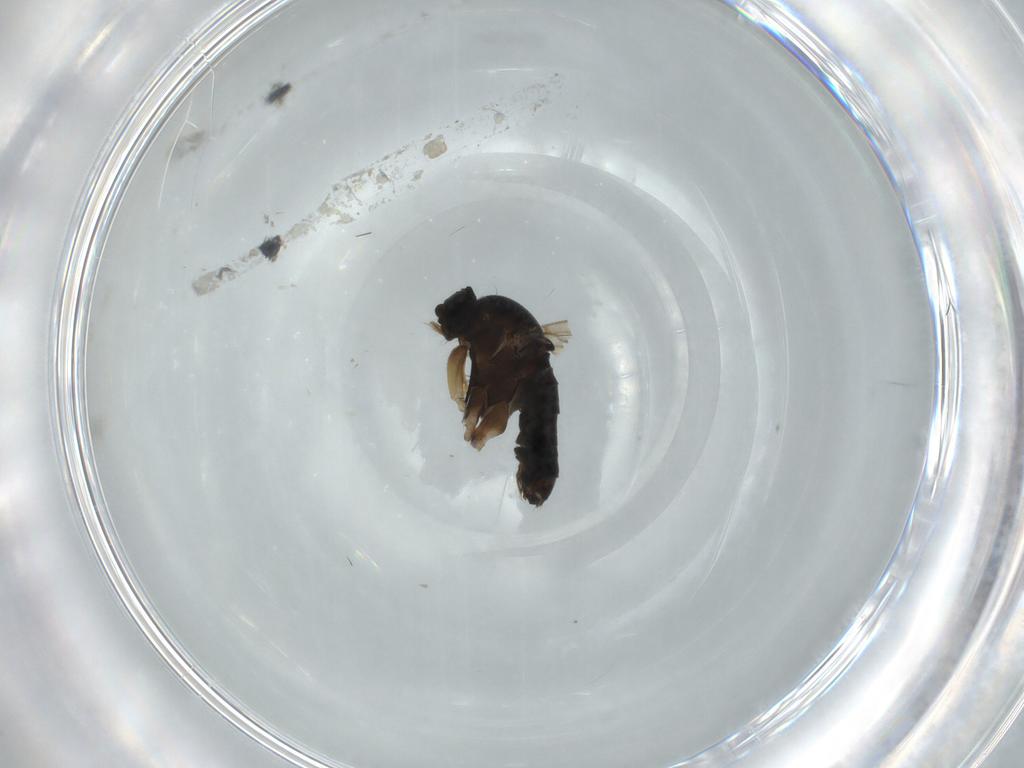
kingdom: Animalia
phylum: Arthropoda
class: Insecta
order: Diptera
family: Phoridae
